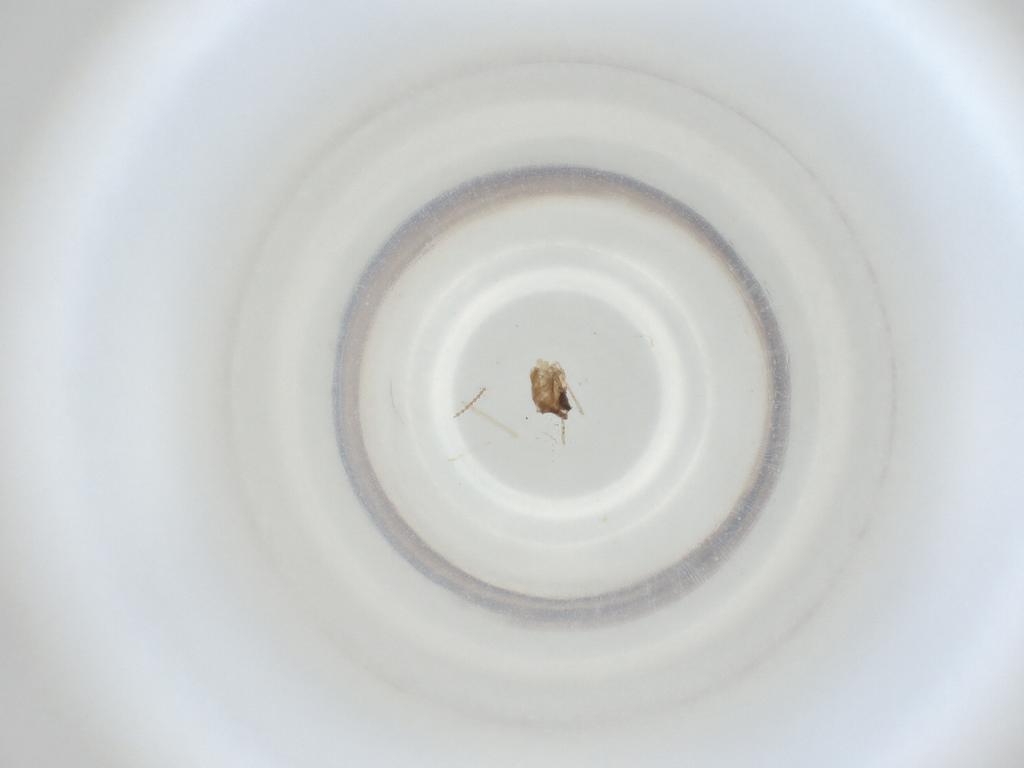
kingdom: Animalia
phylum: Arthropoda
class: Insecta
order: Diptera
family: Cecidomyiidae
